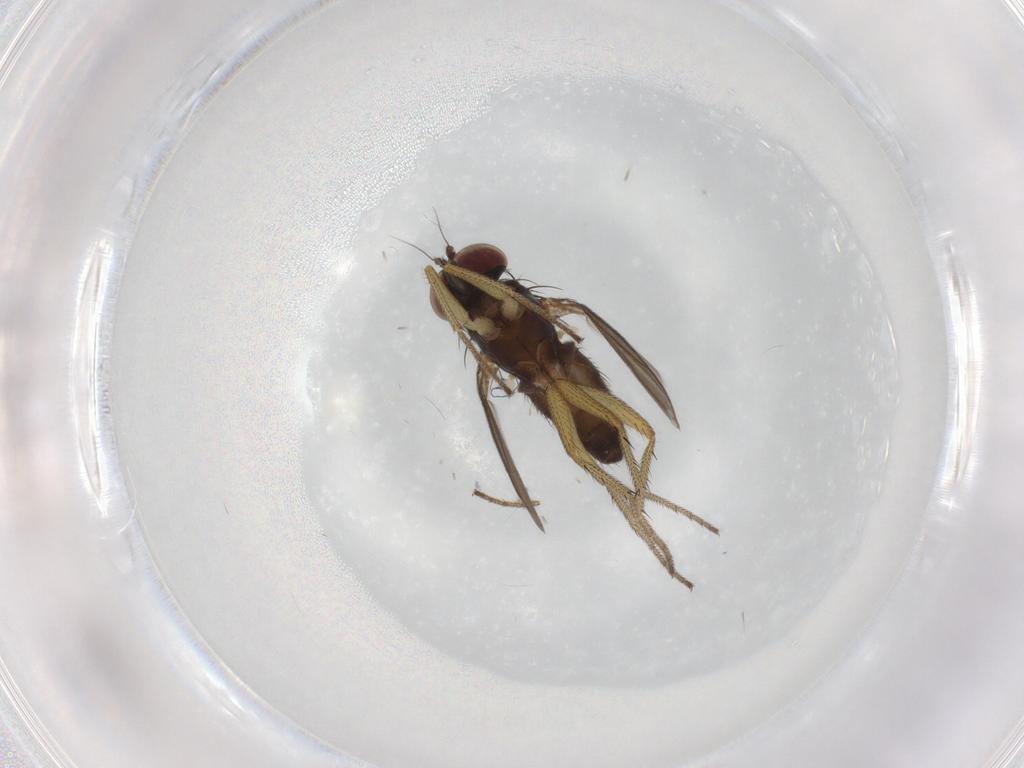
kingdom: Animalia
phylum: Arthropoda
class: Insecta
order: Diptera
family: Dolichopodidae
